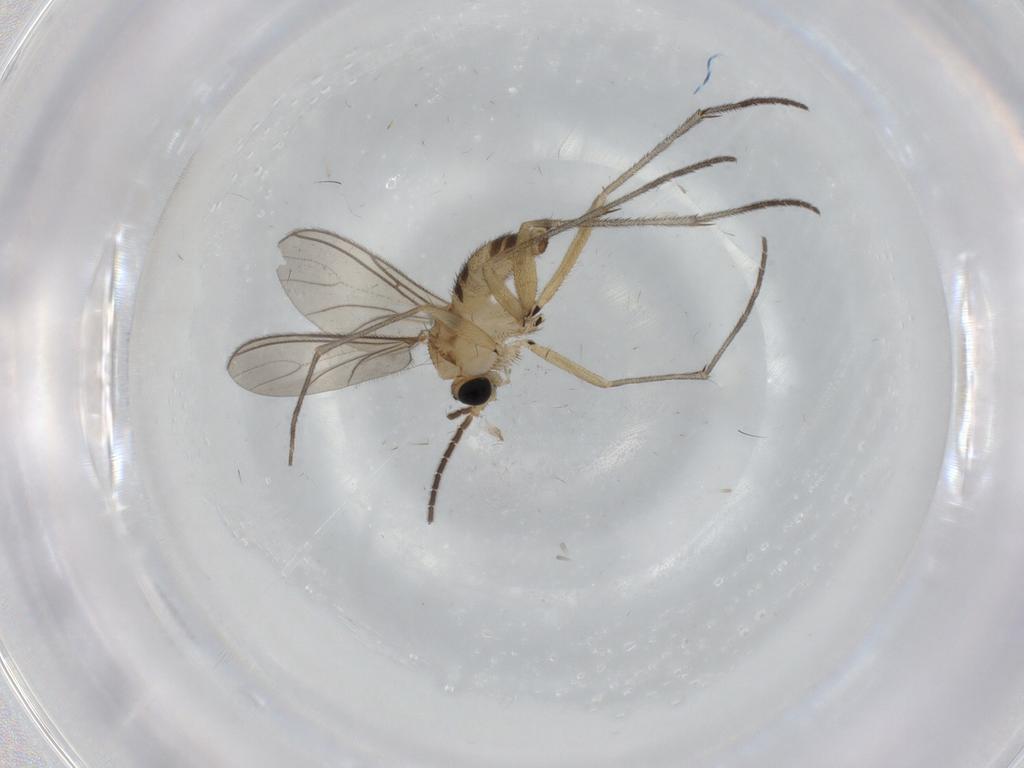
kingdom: Animalia
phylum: Arthropoda
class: Insecta
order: Diptera
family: Sciaridae
